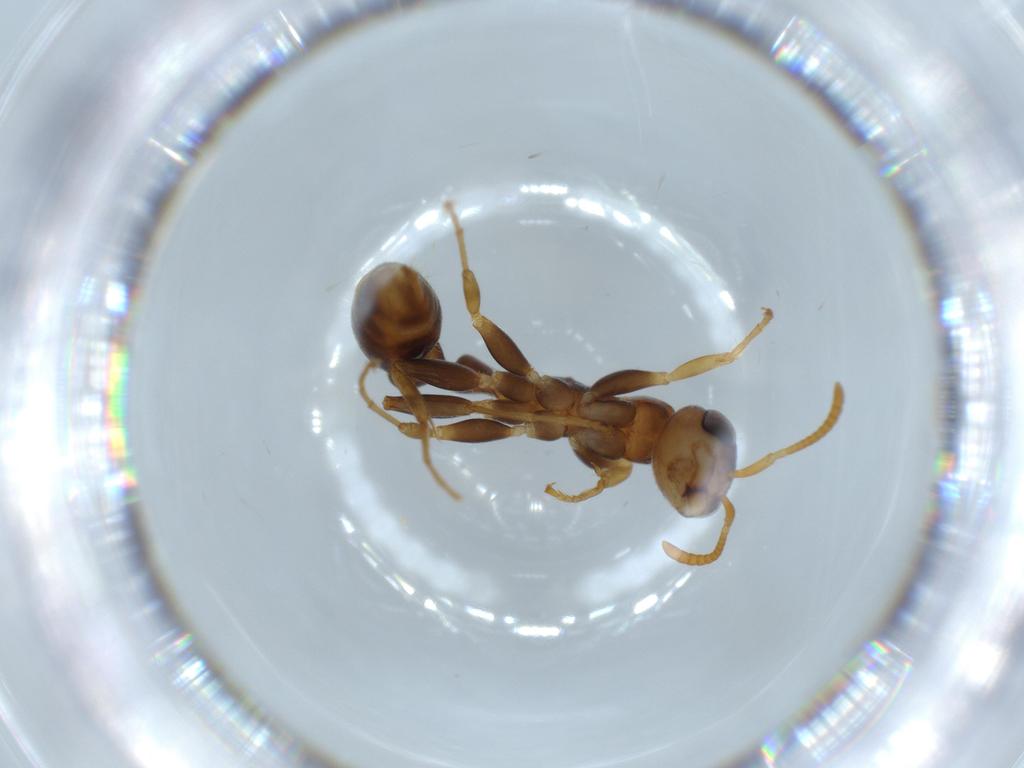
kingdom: Animalia
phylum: Arthropoda
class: Insecta
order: Hymenoptera
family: Formicidae
